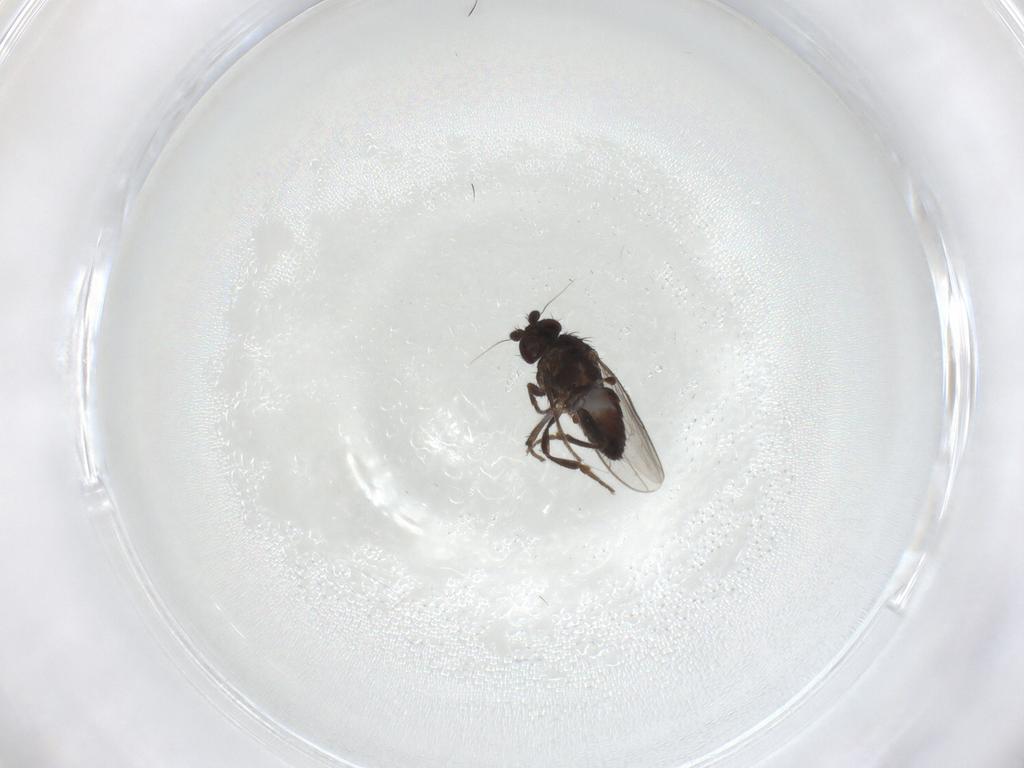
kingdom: Animalia
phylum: Arthropoda
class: Insecta
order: Diptera
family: Sphaeroceridae
